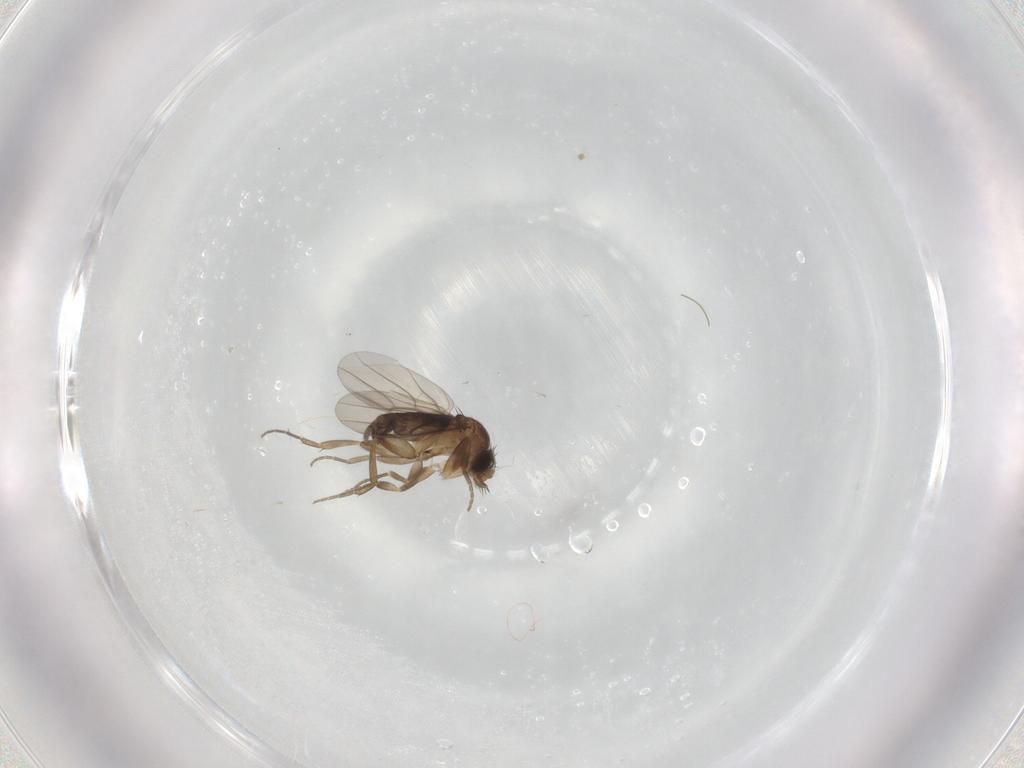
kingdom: Animalia
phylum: Arthropoda
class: Insecta
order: Diptera
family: Phoridae
